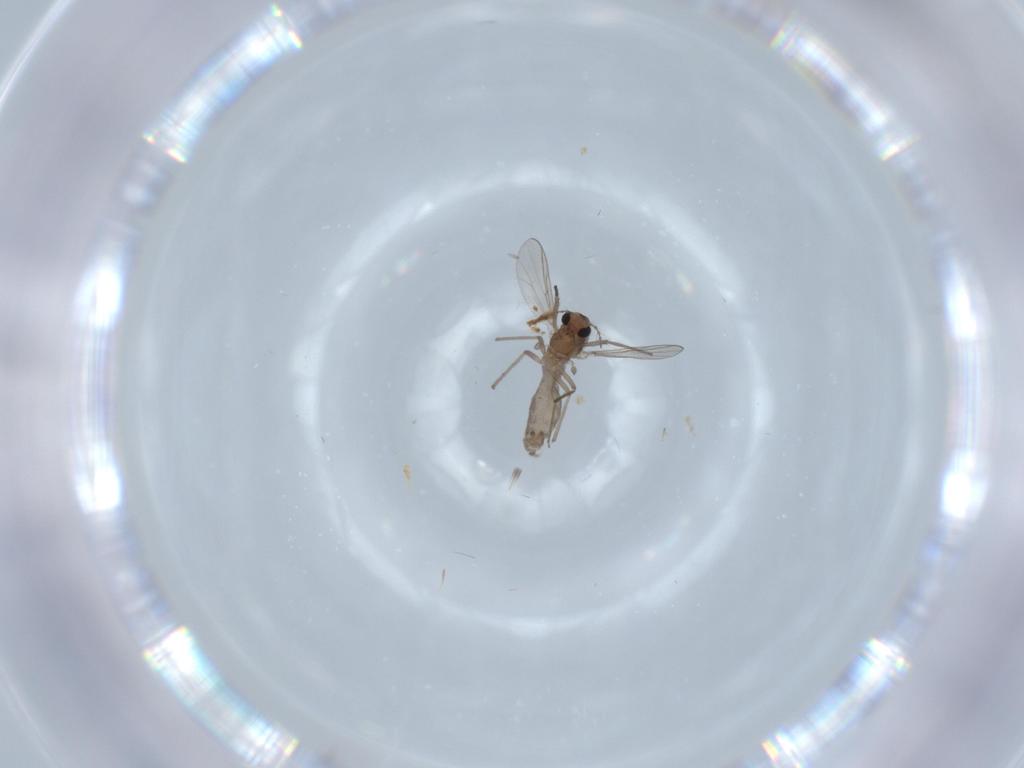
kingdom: Animalia
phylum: Arthropoda
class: Insecta
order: Diptera
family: Chironomidae
